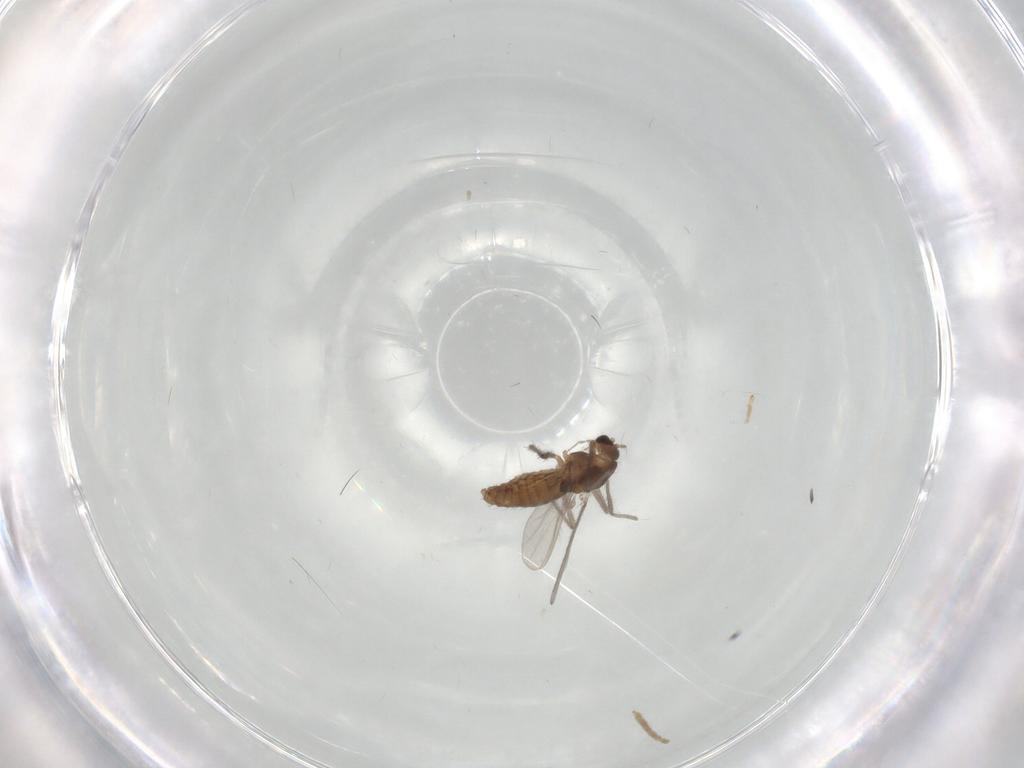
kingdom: Animalia
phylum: Arthropoda
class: Insecta
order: Diptera
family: Chironomidae
